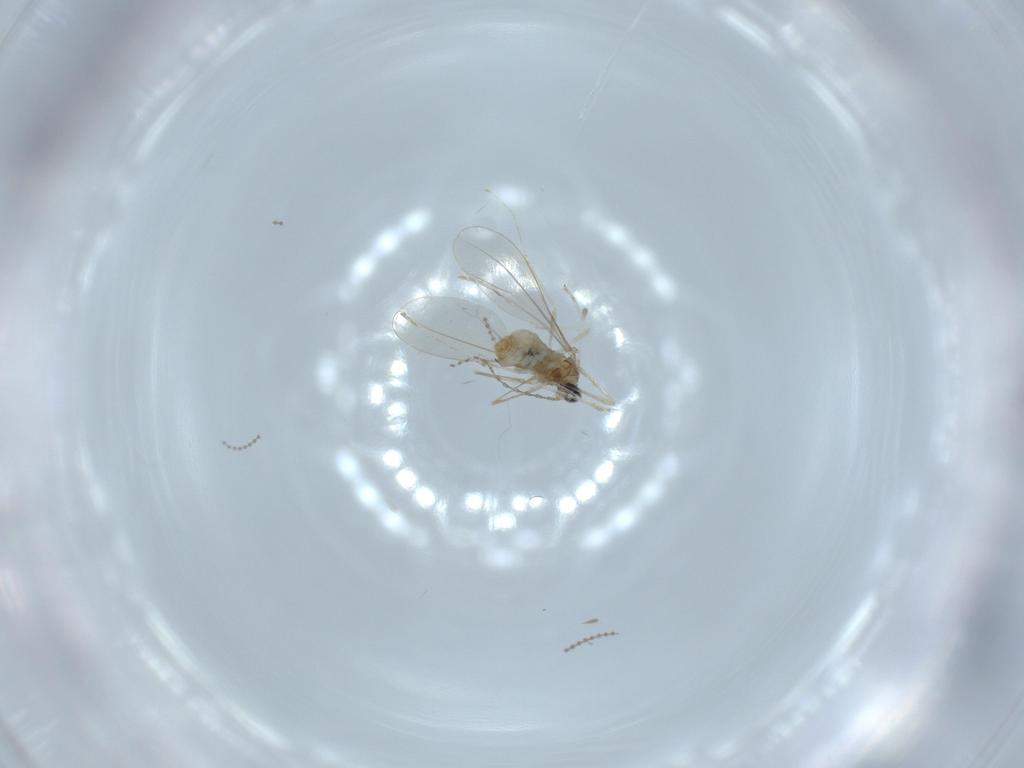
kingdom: Animalia
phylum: Arthropoda
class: Insecta
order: Diptera
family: Cecidomyiidae
